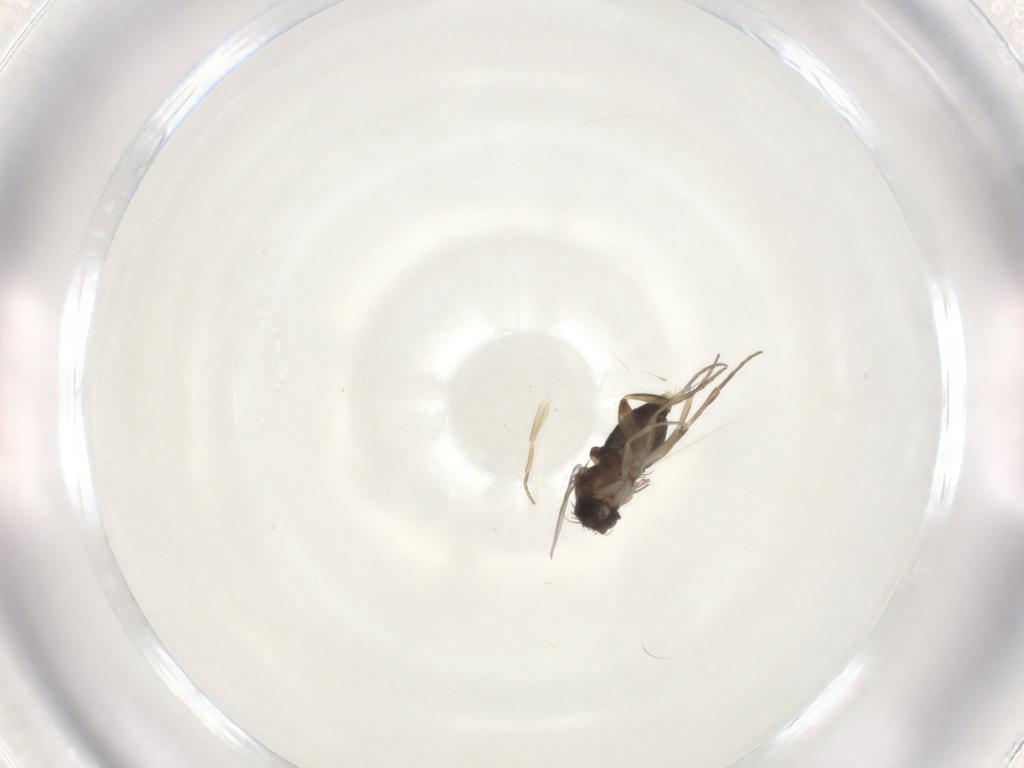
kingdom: Animalia
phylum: Arthropoda
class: Insecta
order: Diptera
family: Phoridae
